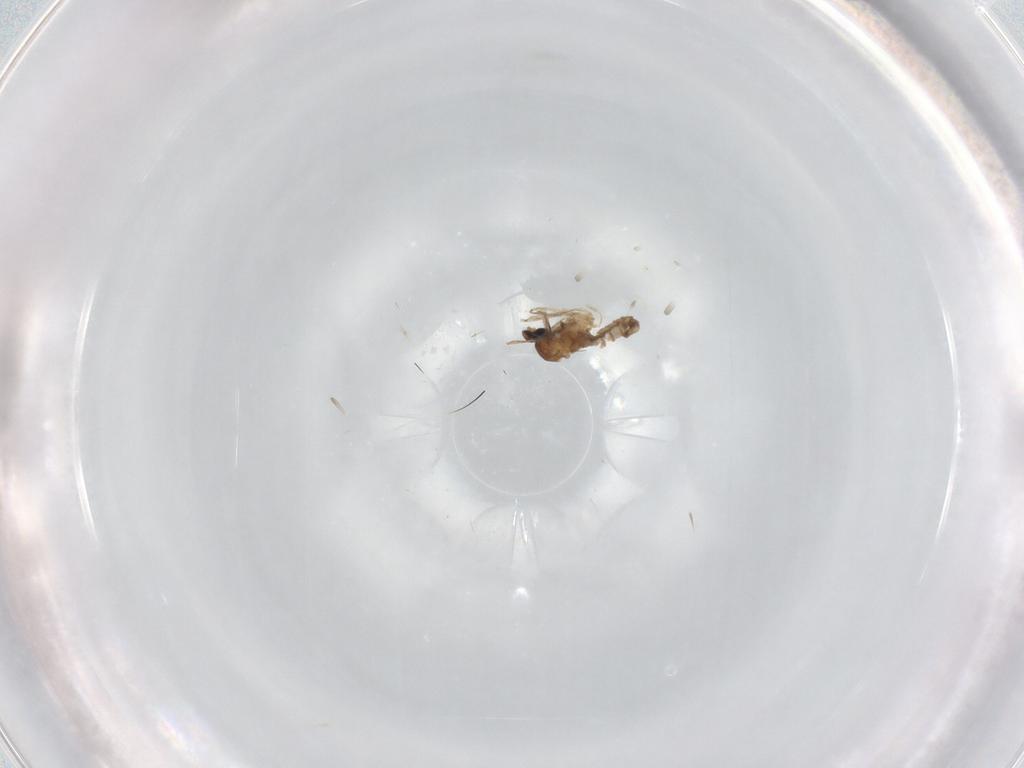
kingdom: Animalia
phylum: Arthropoda
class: Insecta
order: Diptera
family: Cecidomyiidae
